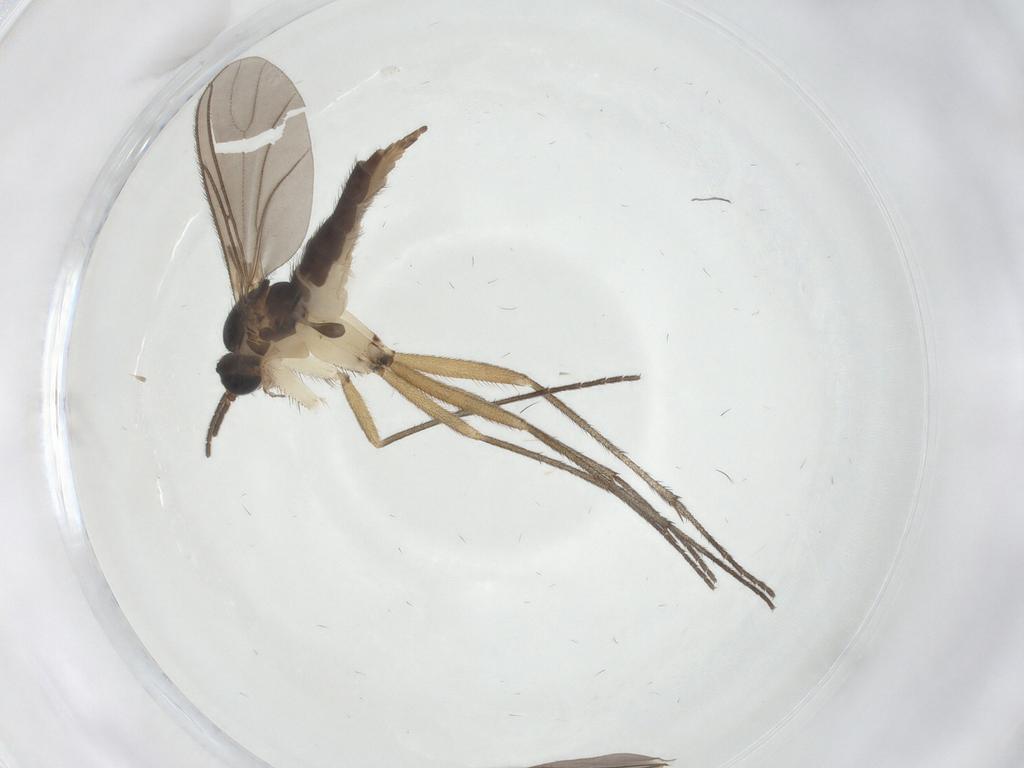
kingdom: Animalia
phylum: Arthropoda
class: Insecta
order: Diptera
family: Sciaridae
